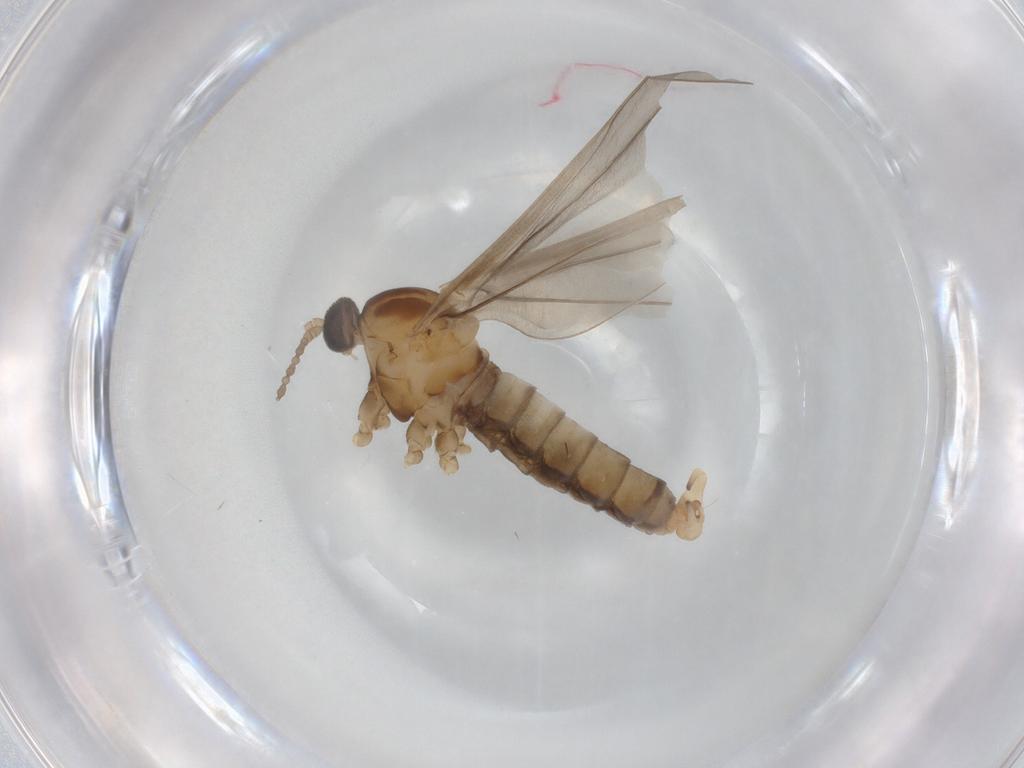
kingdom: Animalia
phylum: Arthropoda
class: Insecta
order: Diptera
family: Cecidomyiidae
